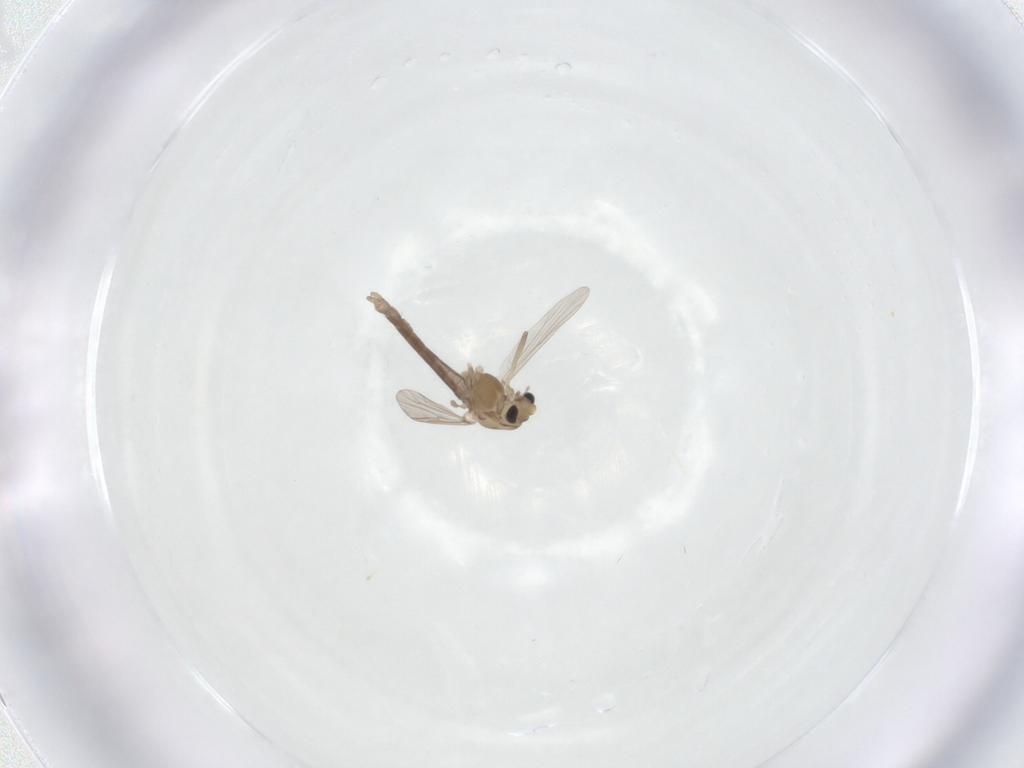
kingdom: Animalia
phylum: Arthropoda
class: Insecta
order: Diptera
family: Chironomidae
